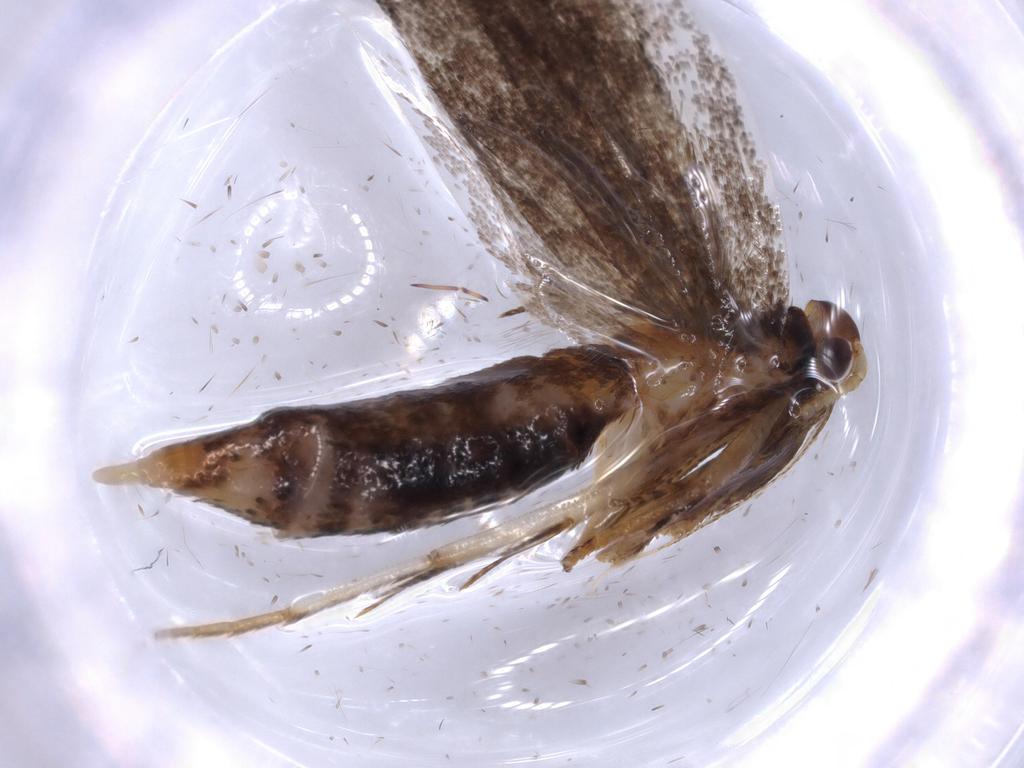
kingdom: Animalia
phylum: Arthropoda
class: Insecta
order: Lepidoptera
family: Lecithoceridae
